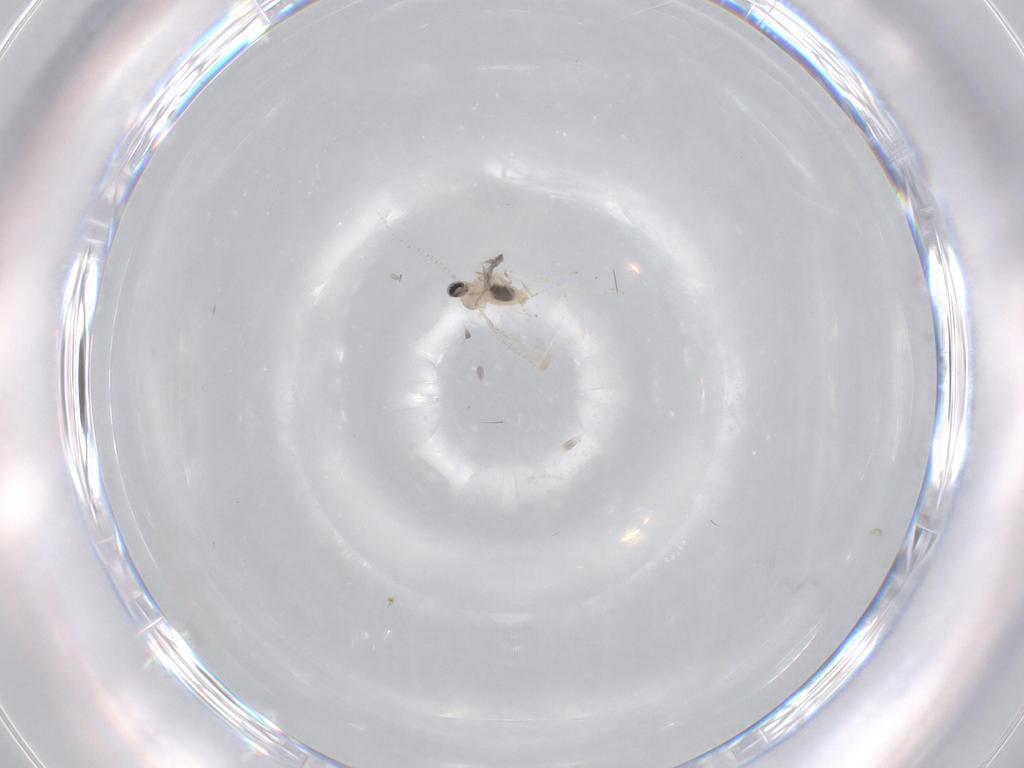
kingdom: Animalia
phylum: Arthropoda
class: Insecta
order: Diptera
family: Cecidomyiidae
